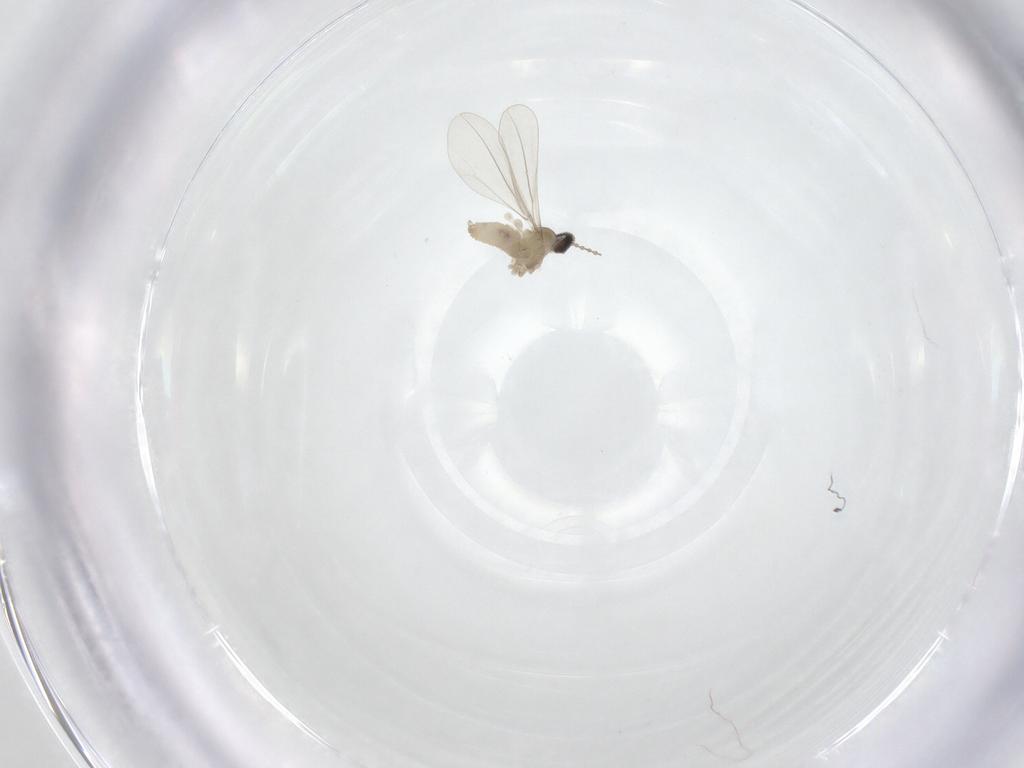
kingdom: Animalia
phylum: Arthropoda
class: Insecta
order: Diptera
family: Cecidomyiidae
